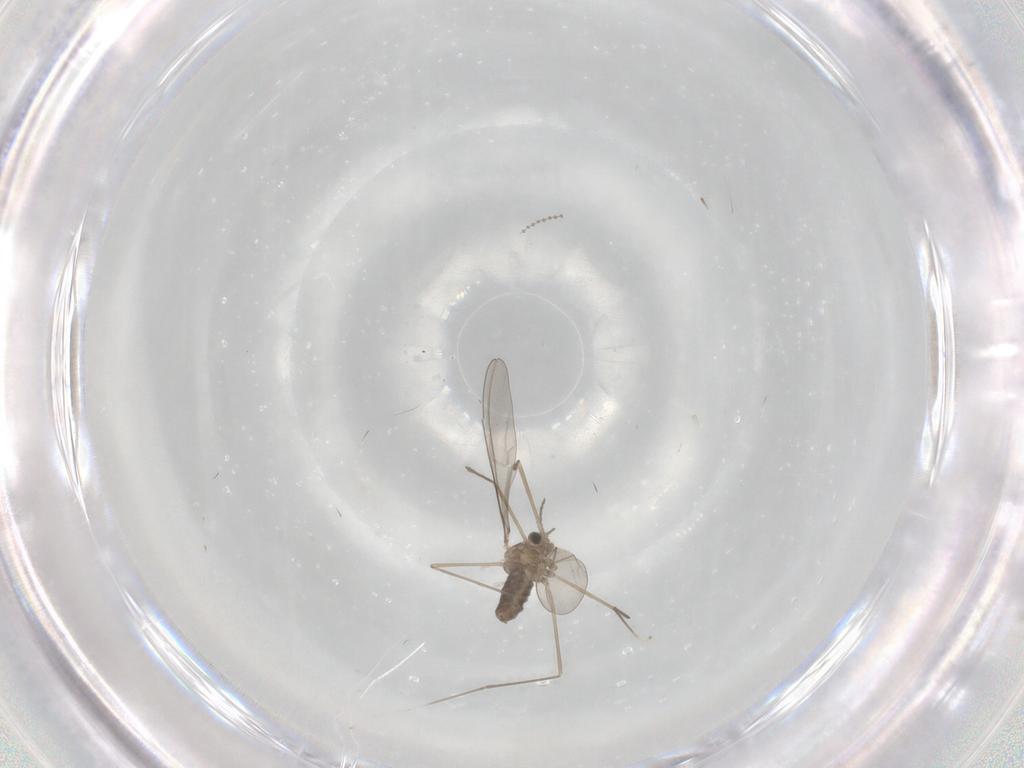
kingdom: Animalia
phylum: Arthropoda
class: Insecta
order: Diptera
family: Cecidomyiidae
